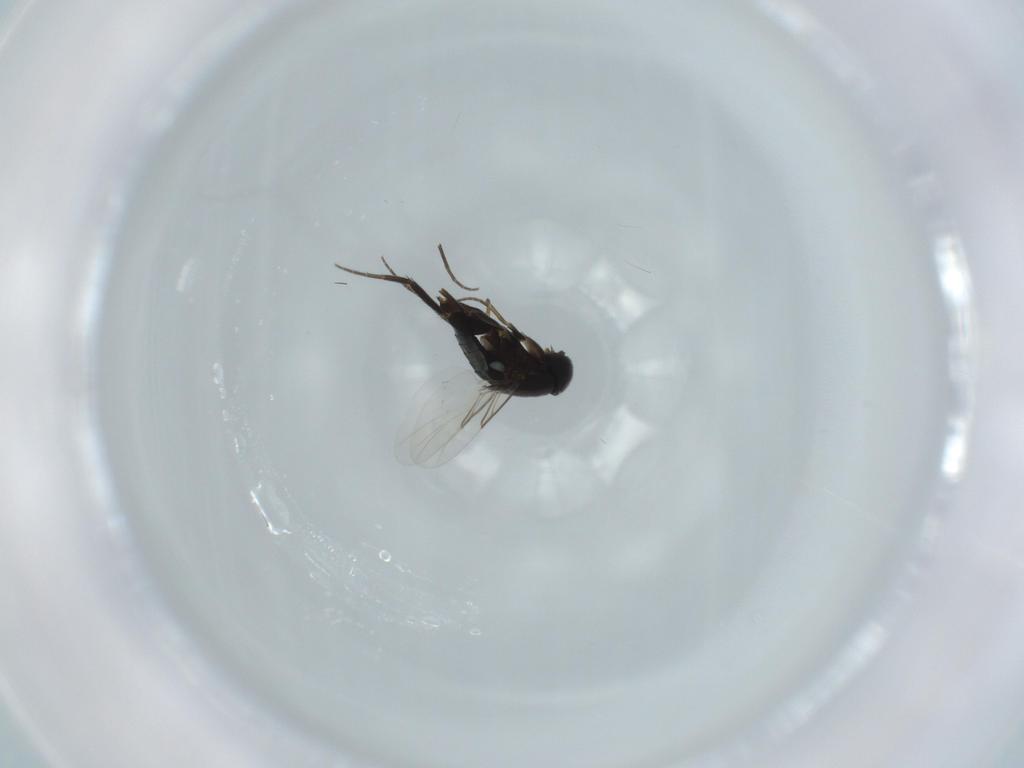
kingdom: Animalia
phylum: Arthropoda
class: Insecta
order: Diptera
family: Phoridae
